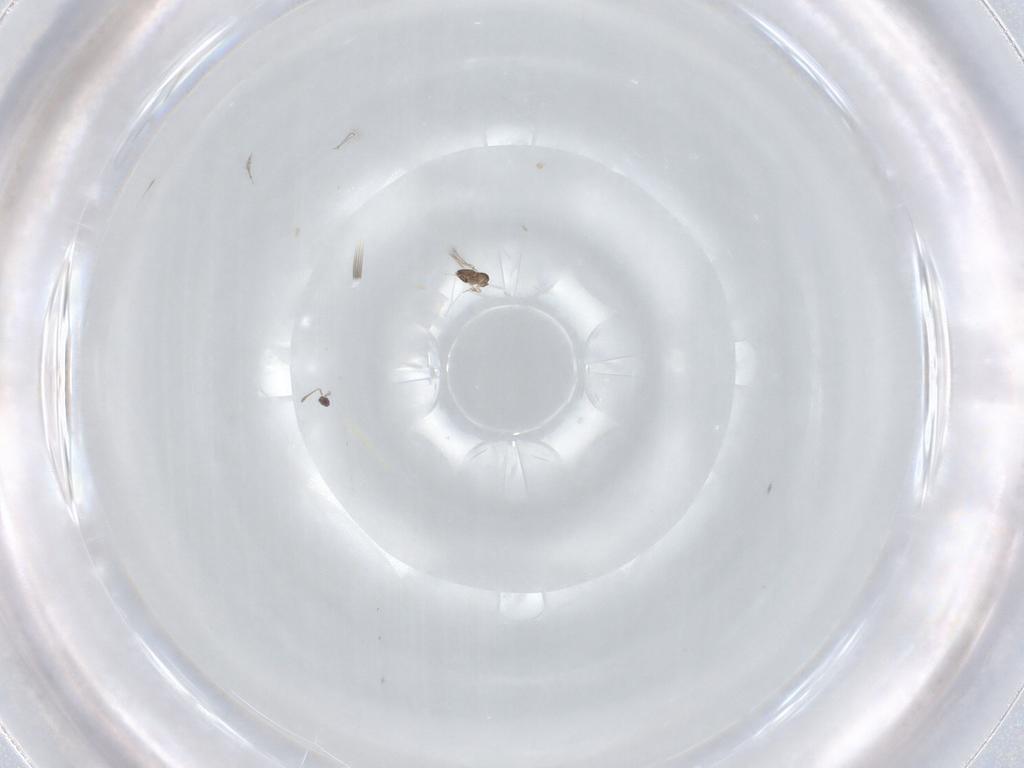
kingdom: Animalia
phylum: Arthropoda
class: Insecta
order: Hymenoptera
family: Mymaridae
